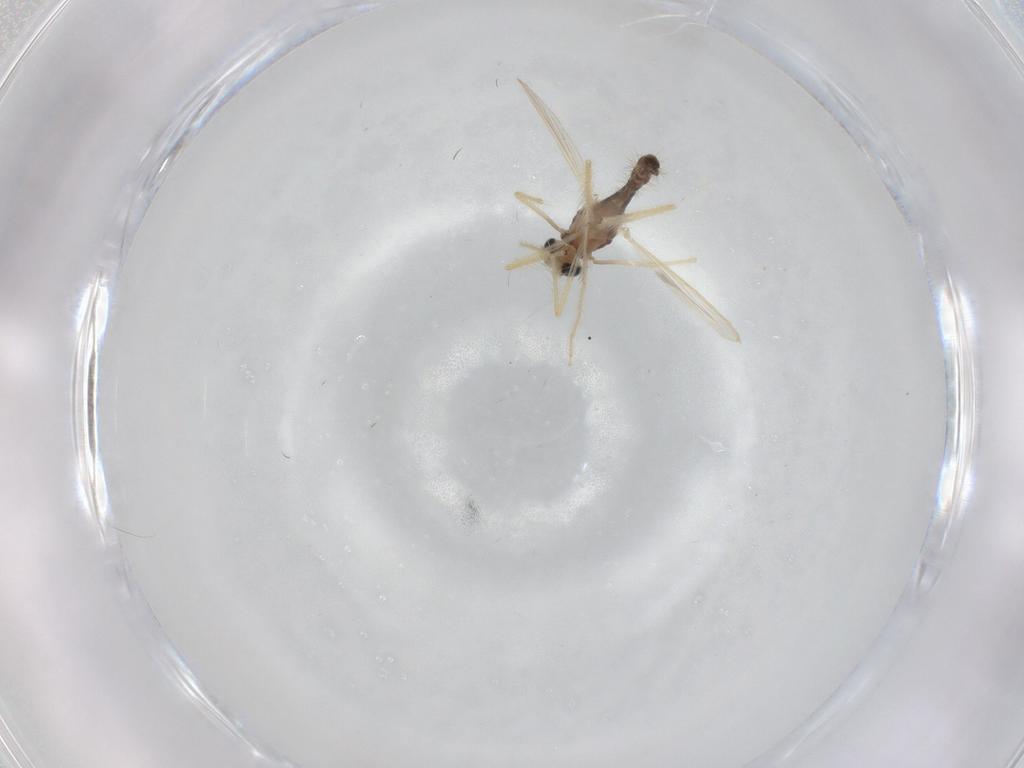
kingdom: Animalia
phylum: Arthropoda
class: Insecta
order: Diptera
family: Chironomidae
